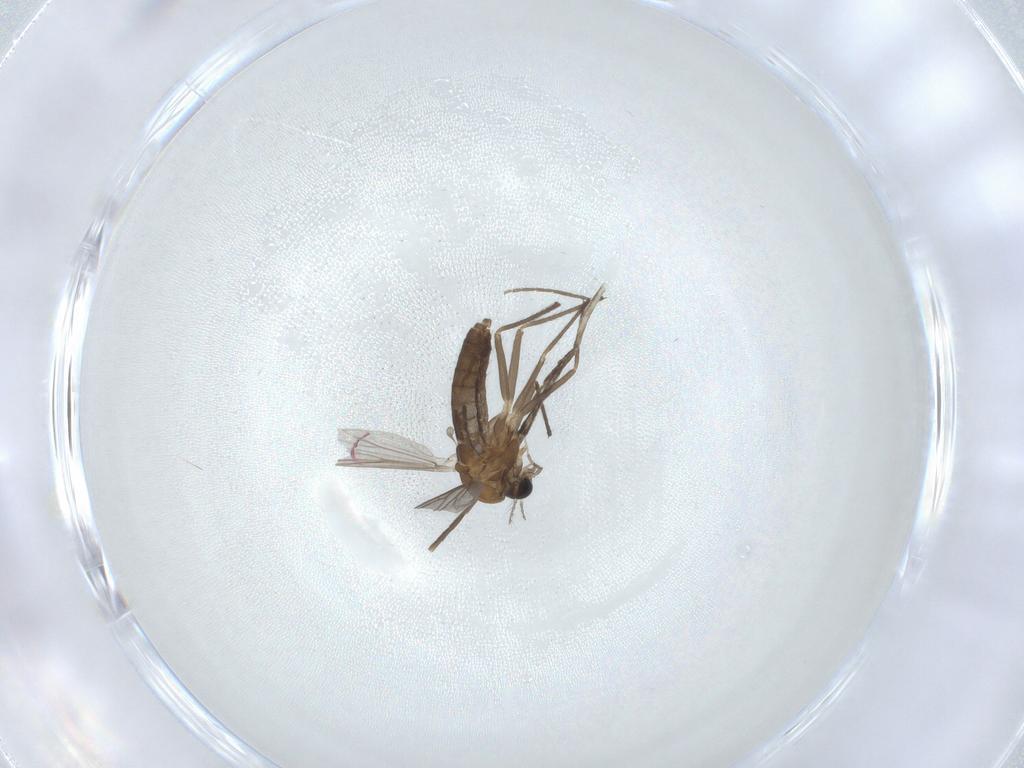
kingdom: Animalia
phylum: Arthropoda
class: Insecta
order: Diptera
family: Chironomidae
